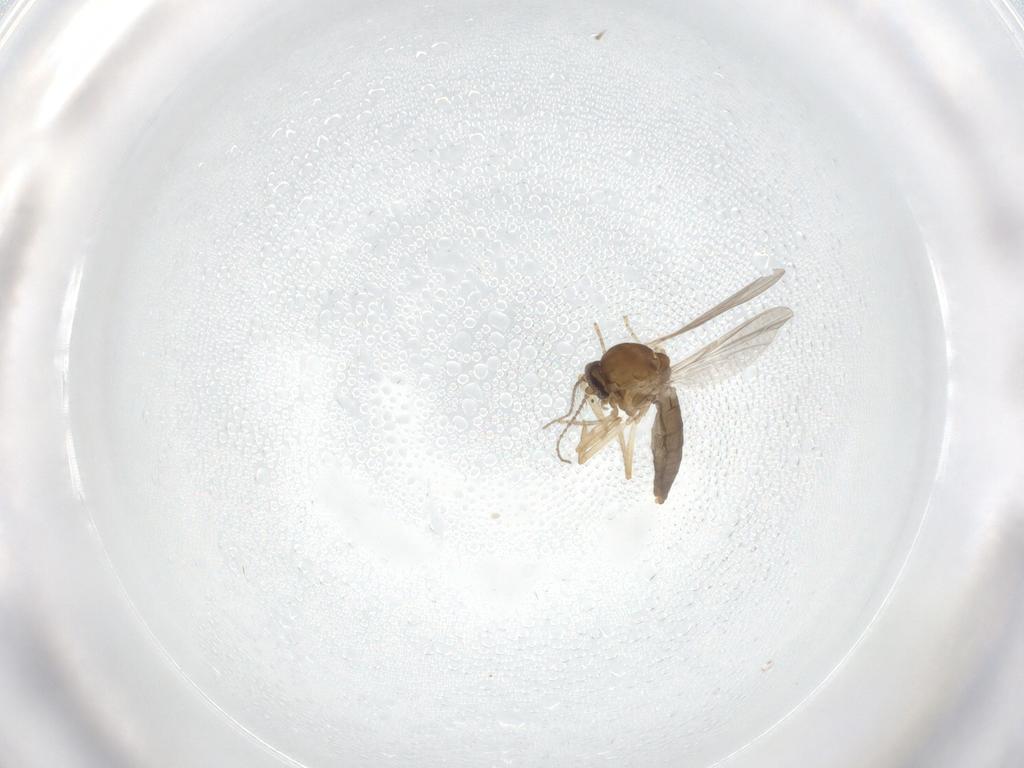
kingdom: Animalia
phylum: Arthropoda
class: Insecta
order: Diptera
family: Ceratopogonidae
